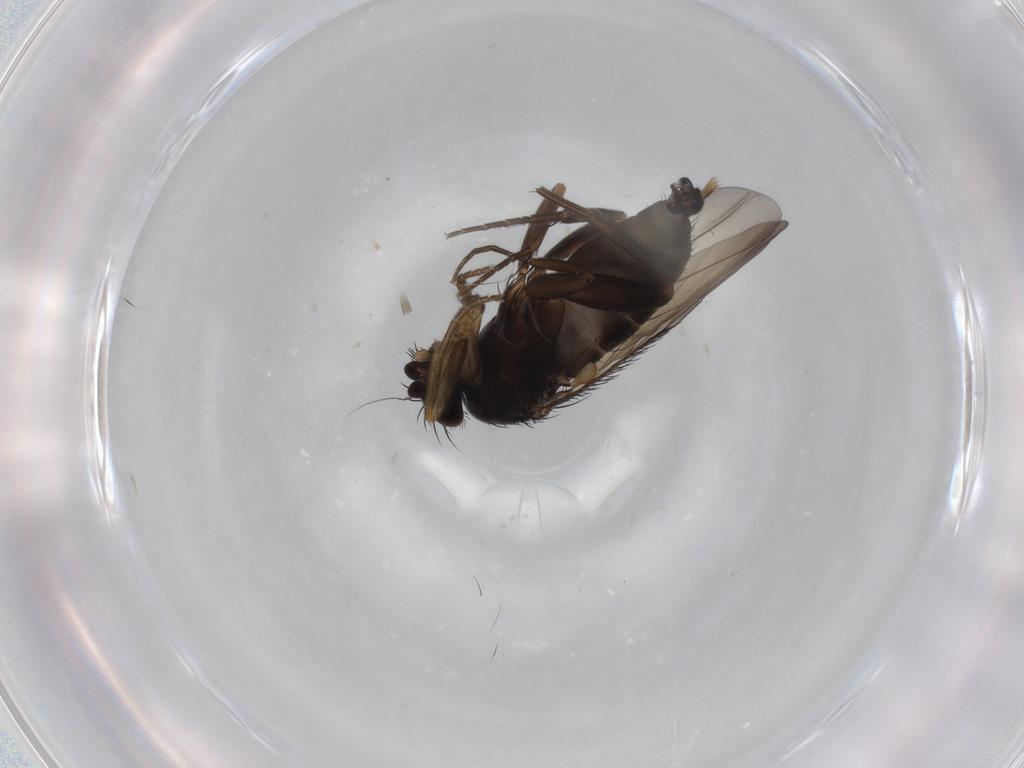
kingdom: Animalia
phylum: Arthropoda
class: Insecta
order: Diptera
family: Phoridae
